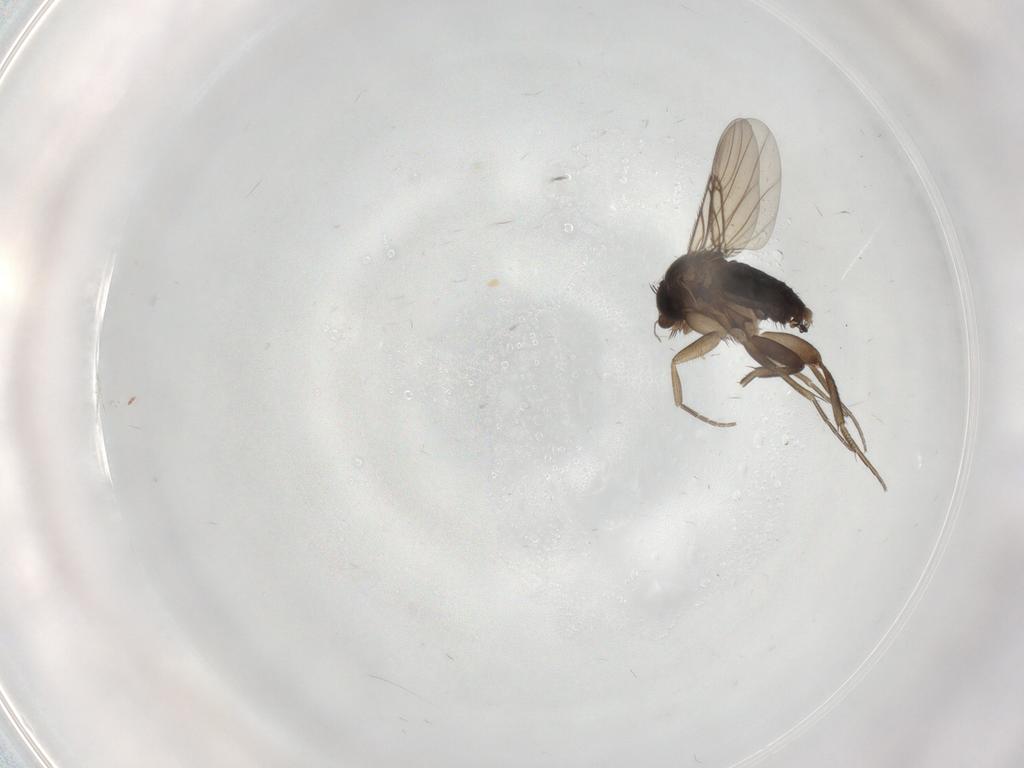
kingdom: Animalia
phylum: Arthropoda
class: Insecta
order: Diptera
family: Phoridae
